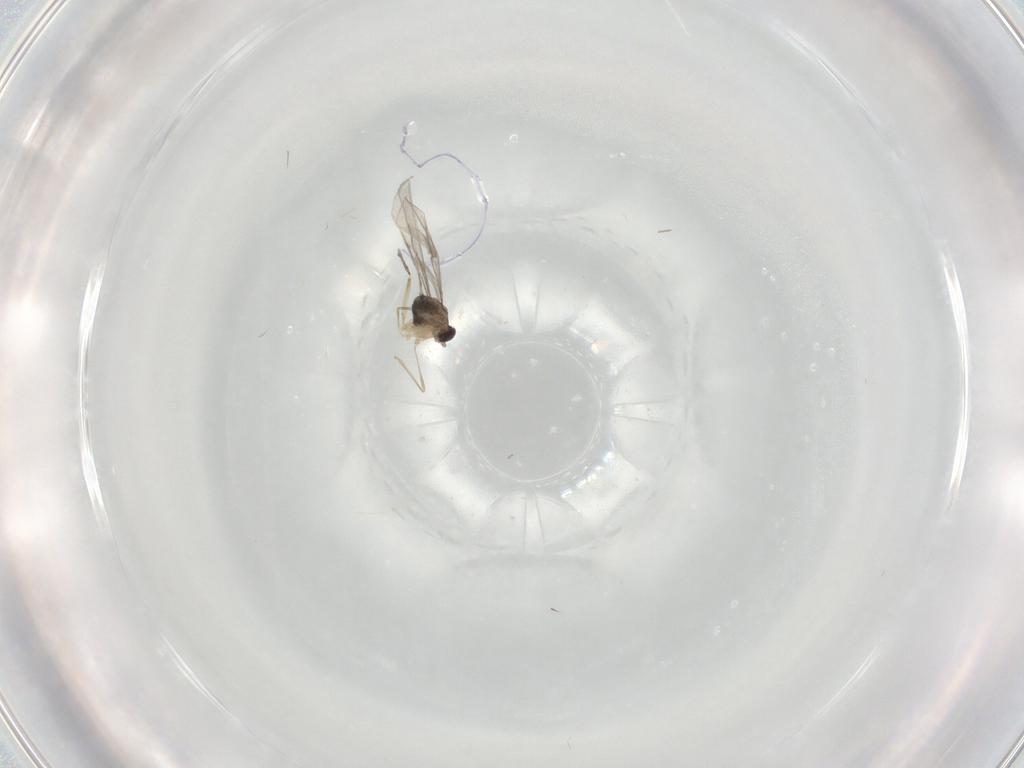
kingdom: Animalia
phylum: Arthropoda
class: Insecta
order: Diptera
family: Cecidomyiidae
